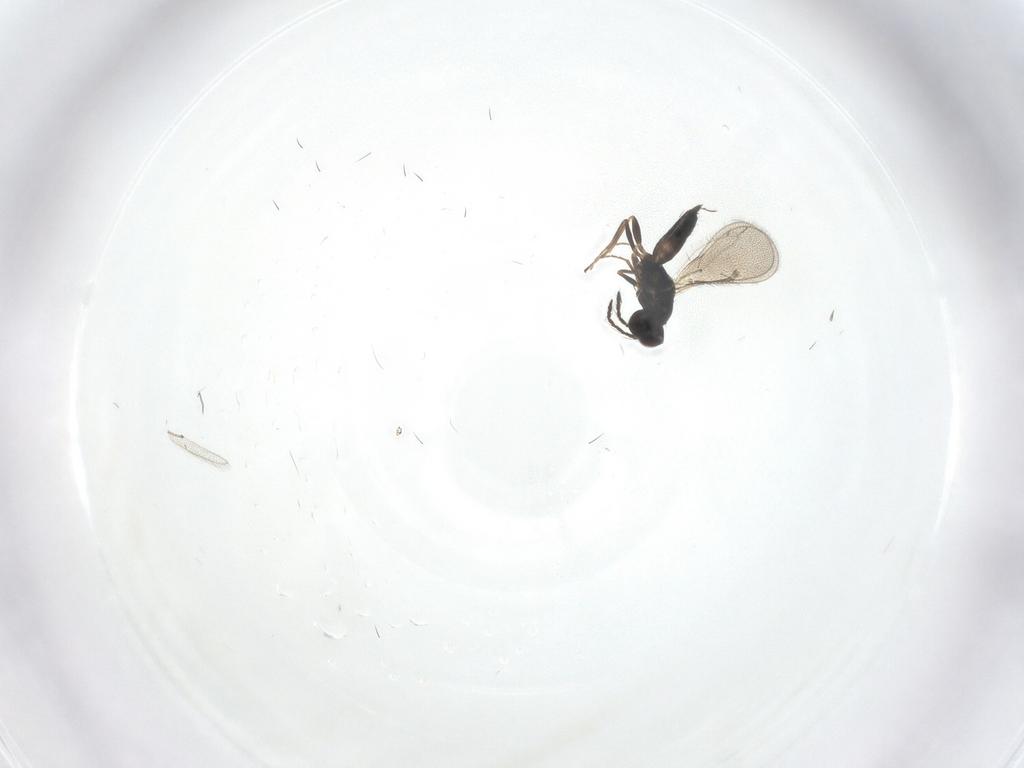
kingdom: Animalia
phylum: Arthropoda
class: Insecta
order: Hymenoptera
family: Eulophidae
